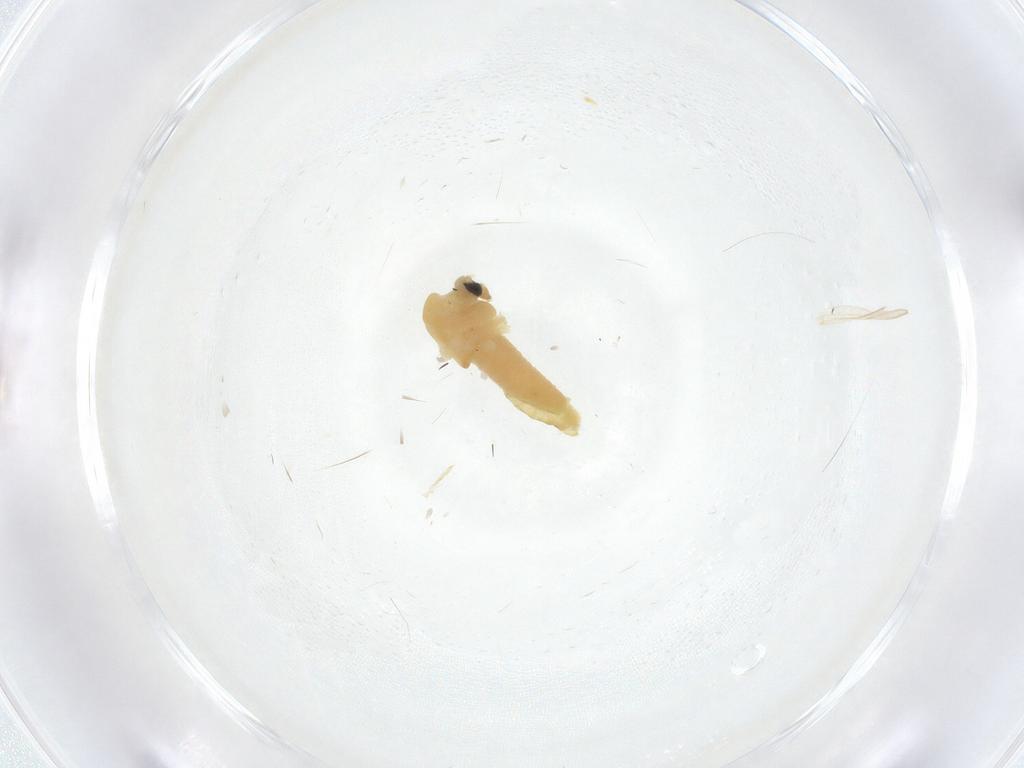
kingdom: Animalia
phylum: Arthropoda
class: Insecta
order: Diptera
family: Chironomidae
